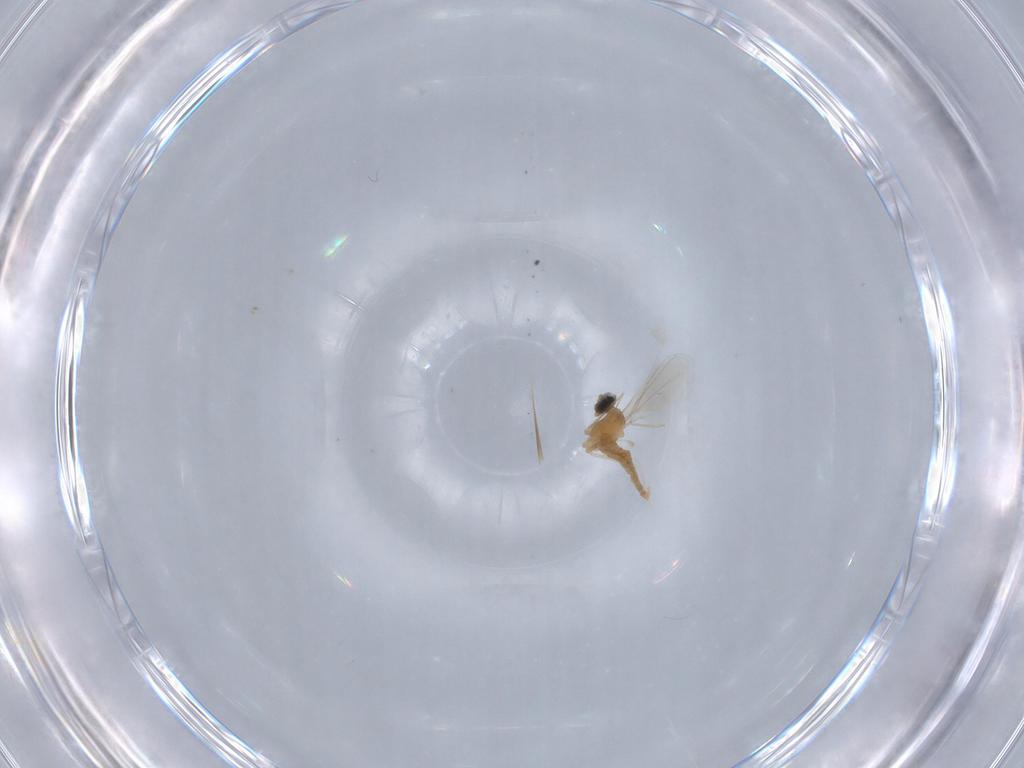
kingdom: Animalia
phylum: Arthropoda
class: Insecta
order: Diptera
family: Cecidomyiidae
